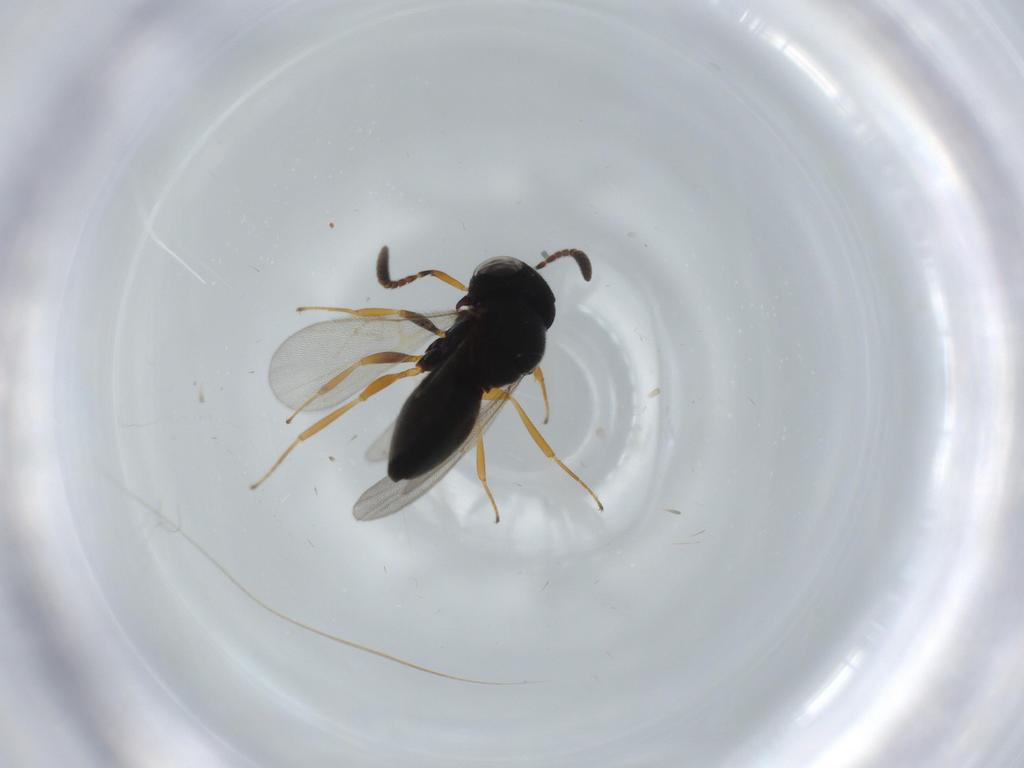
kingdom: Animalia
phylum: Arthropoda
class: Insecta
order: Hymenoptera
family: Scelionidae
